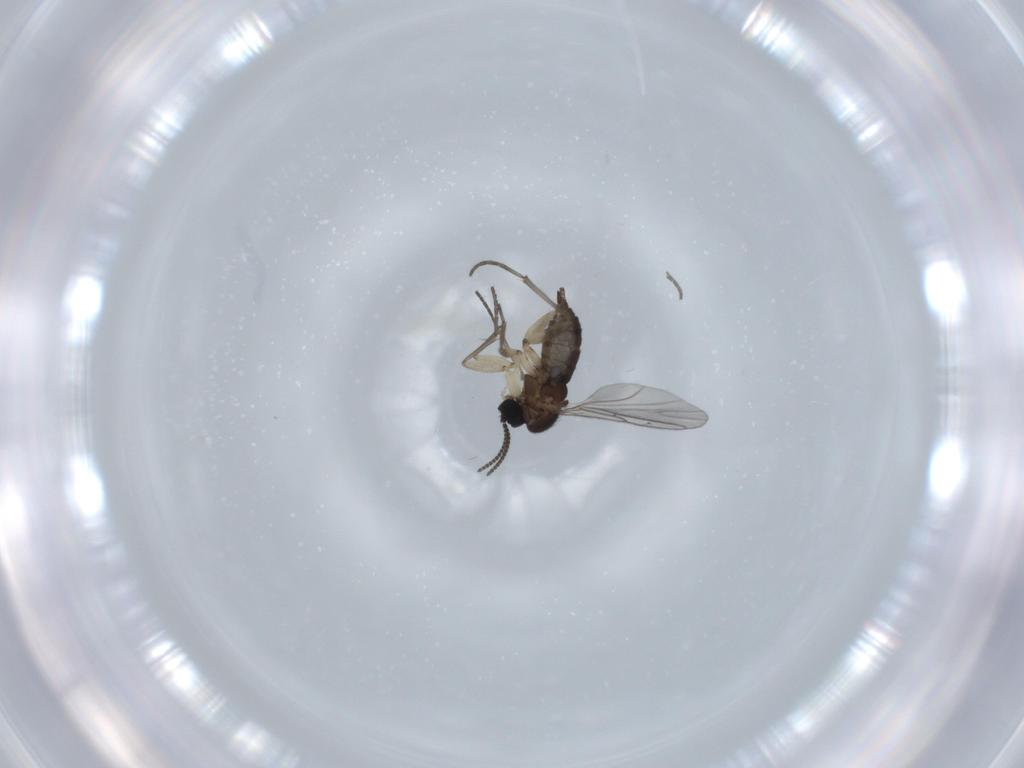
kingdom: Animalia
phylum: Arthropoda
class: Insecta
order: Diptera
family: Sciaridae
